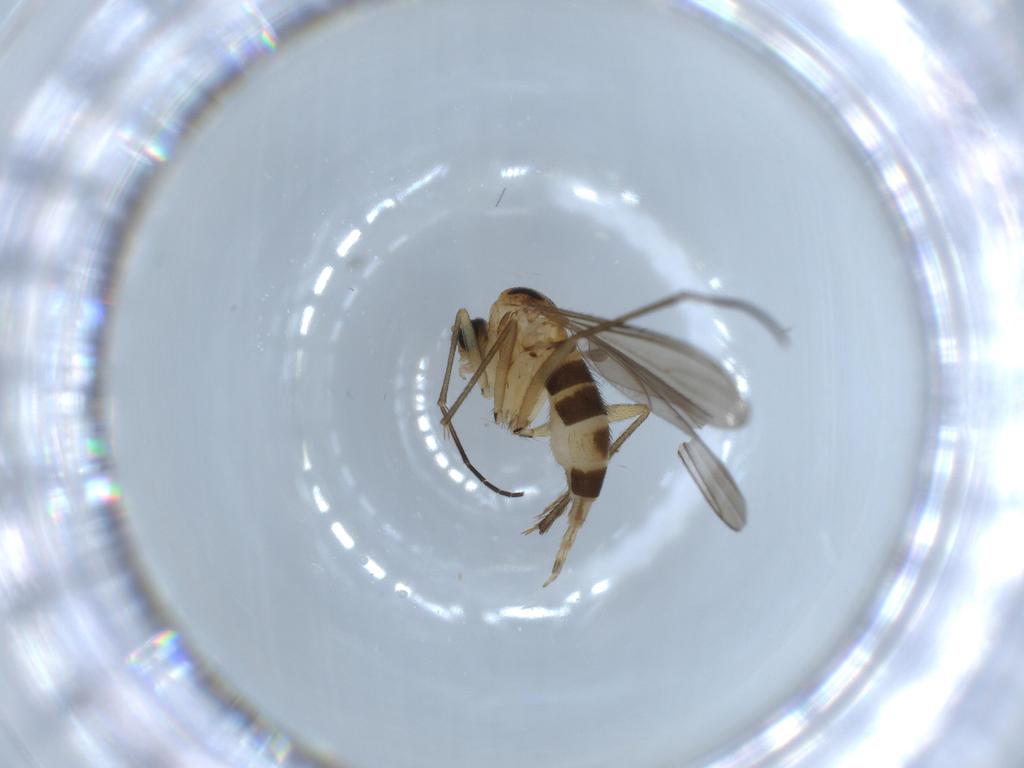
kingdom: Animalia
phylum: Arthropoda
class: Insecta
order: Diptera
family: Sciaridae
